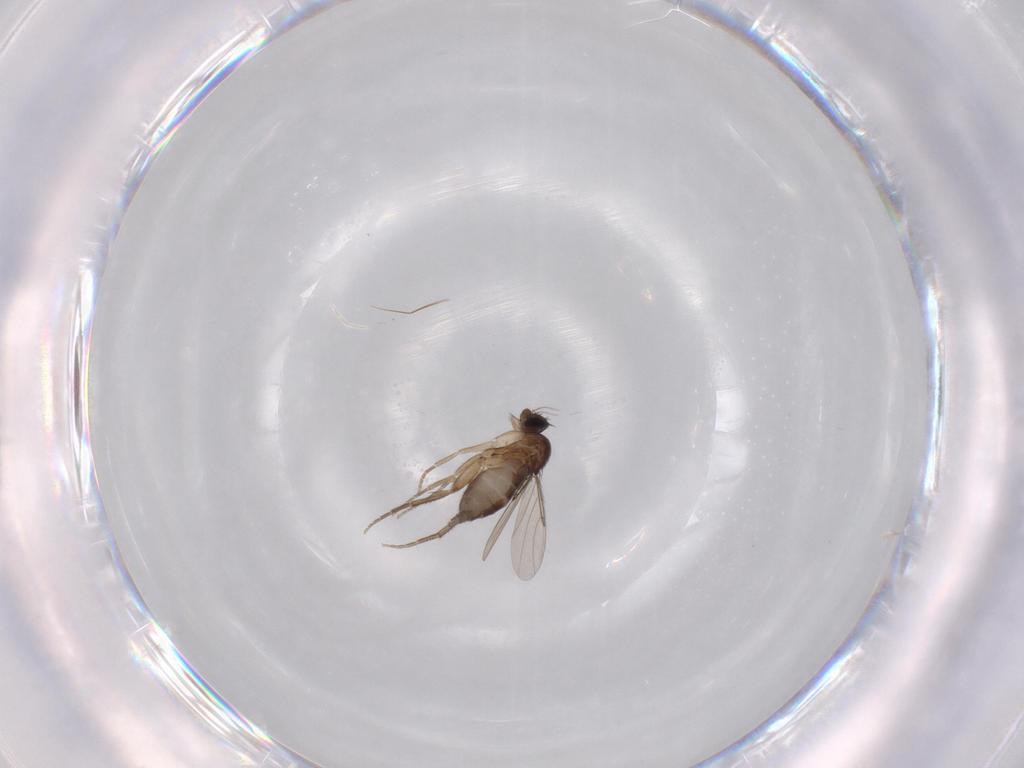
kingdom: Animalia
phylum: Arthropoda
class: Insecta
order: Diptera
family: Phoridae
